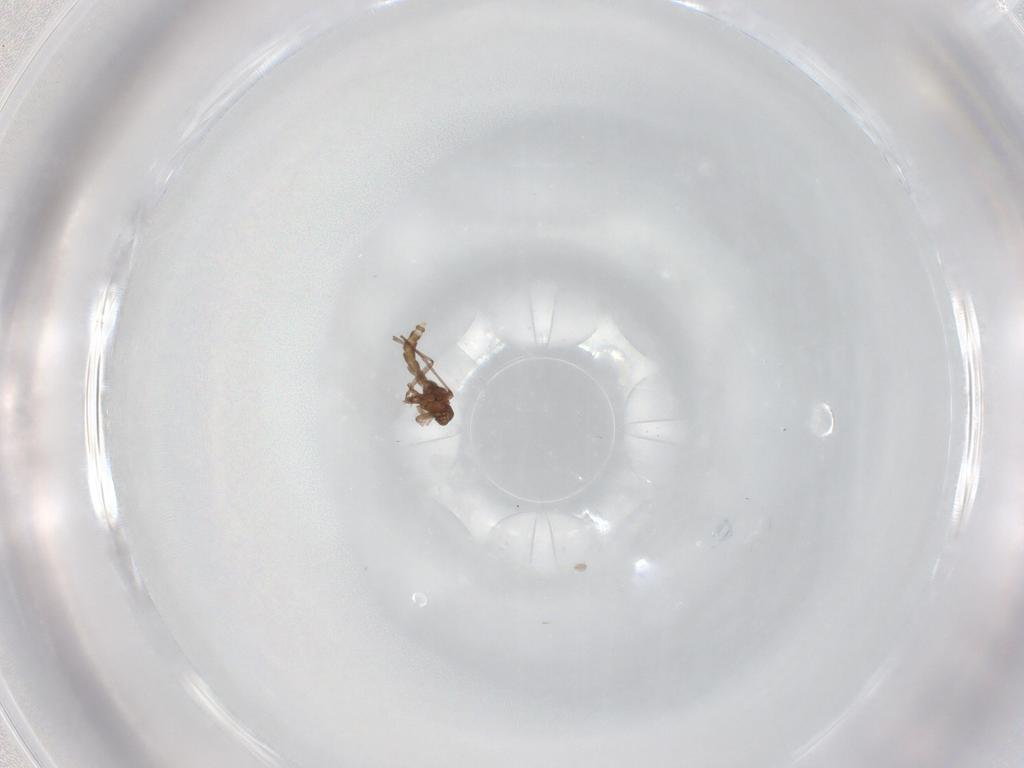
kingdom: Animalia
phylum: Arthropoda
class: Insecta
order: Diptera
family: Sciaridae
